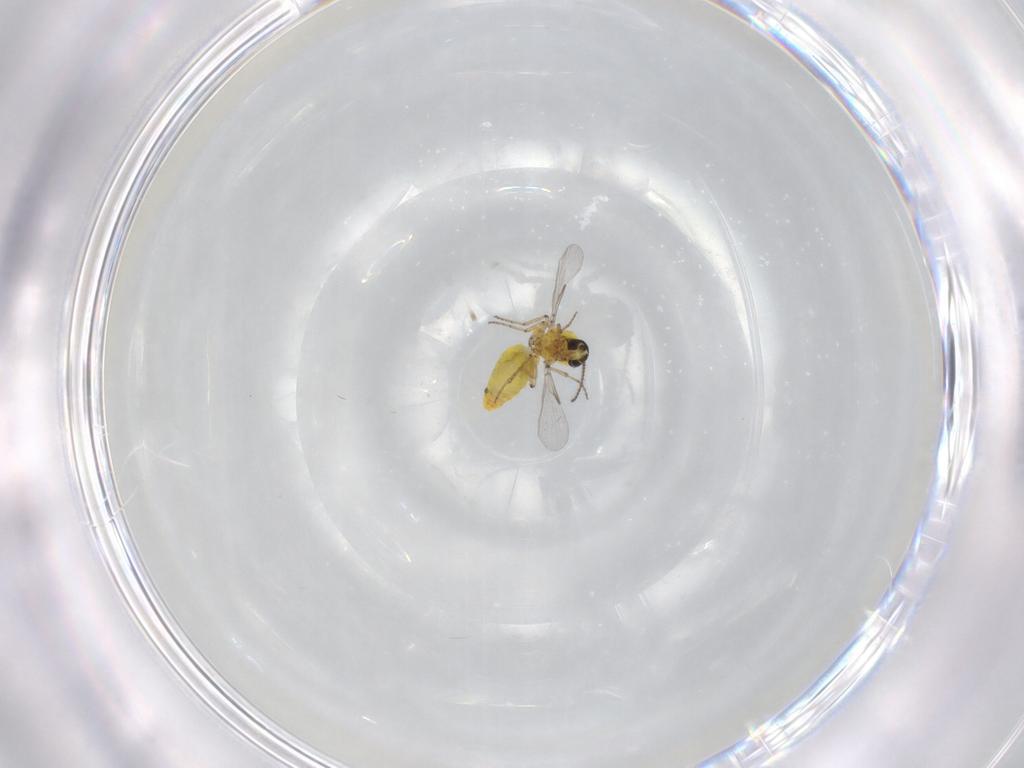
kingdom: Animalia
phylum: Arthropoda
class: Insecta
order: Diptera
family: Ceratopogonidae
